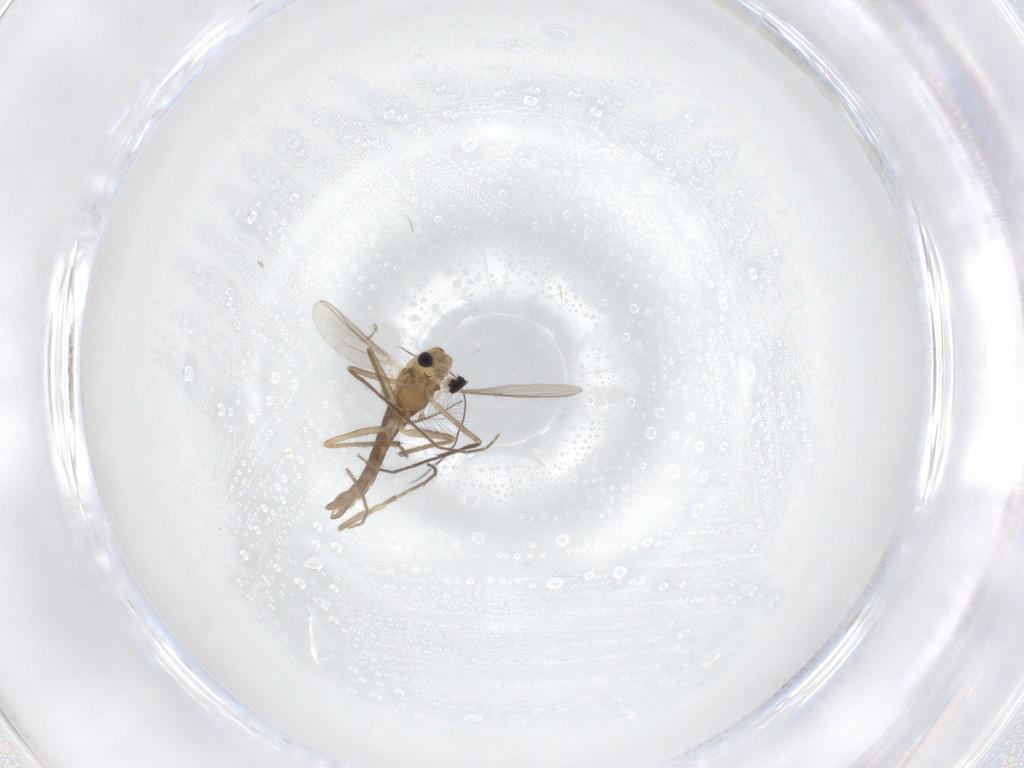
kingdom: Animalia
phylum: Arthropoda
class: Insecta
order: Diptera
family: Chironomidae
